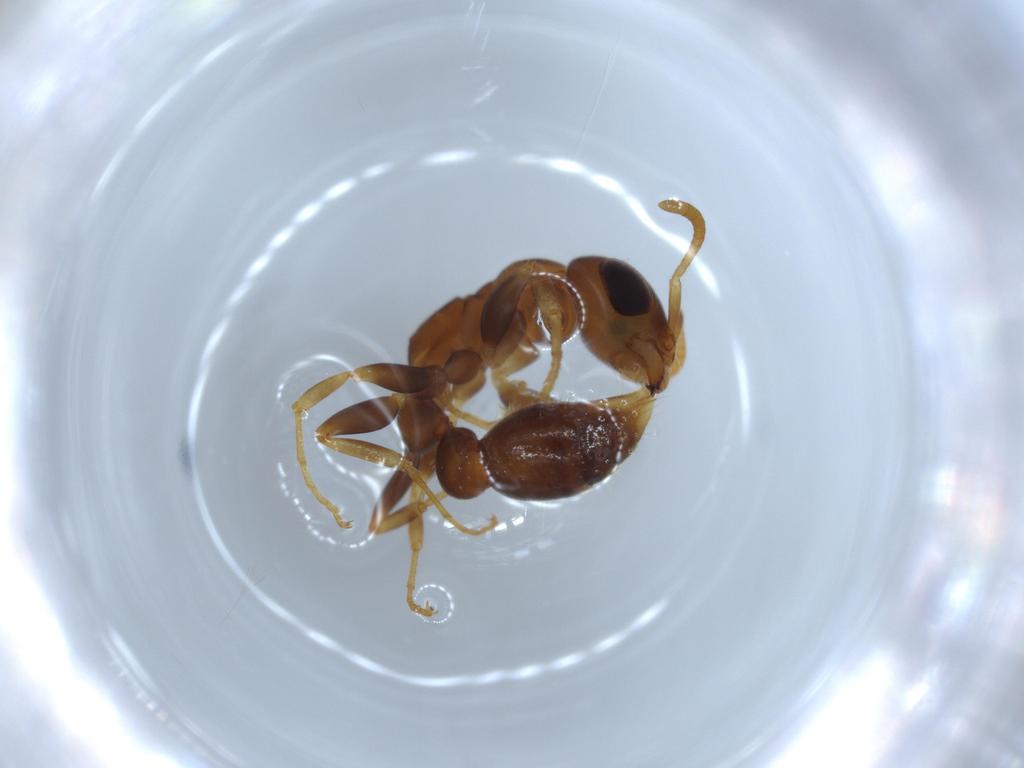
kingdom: Animalia
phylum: Arthropoda
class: Insecta
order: Hymenoptera
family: Formicidae
